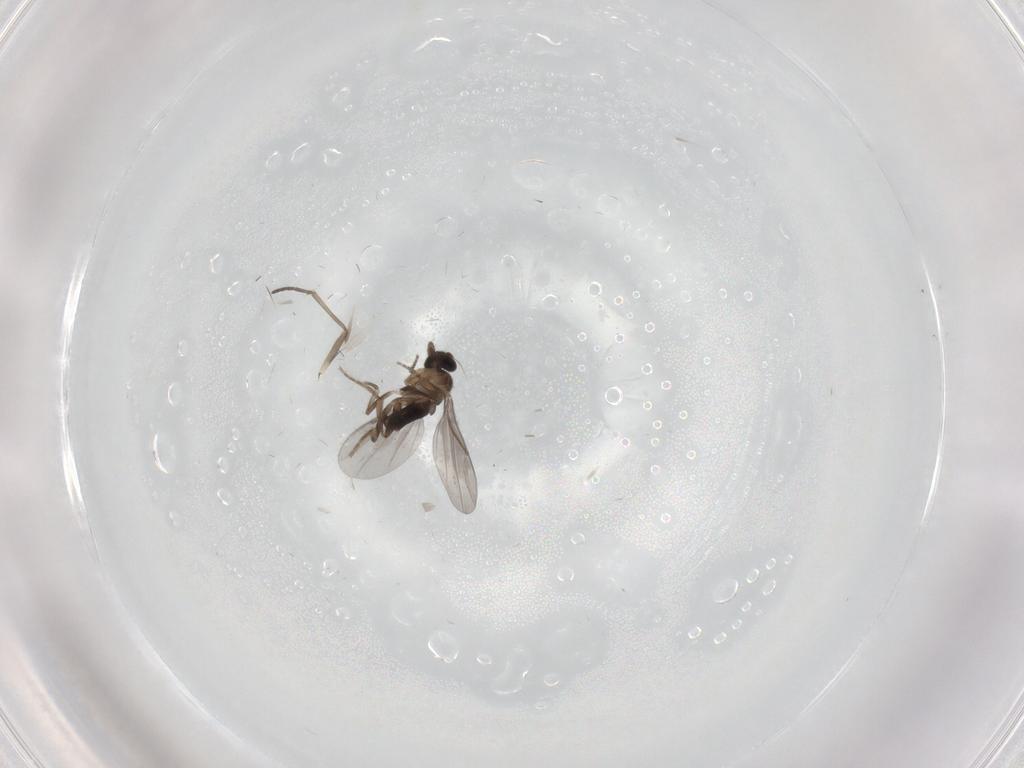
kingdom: Animalia
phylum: Arthropoda
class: Insecta
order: Diptera
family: Sciaridae
